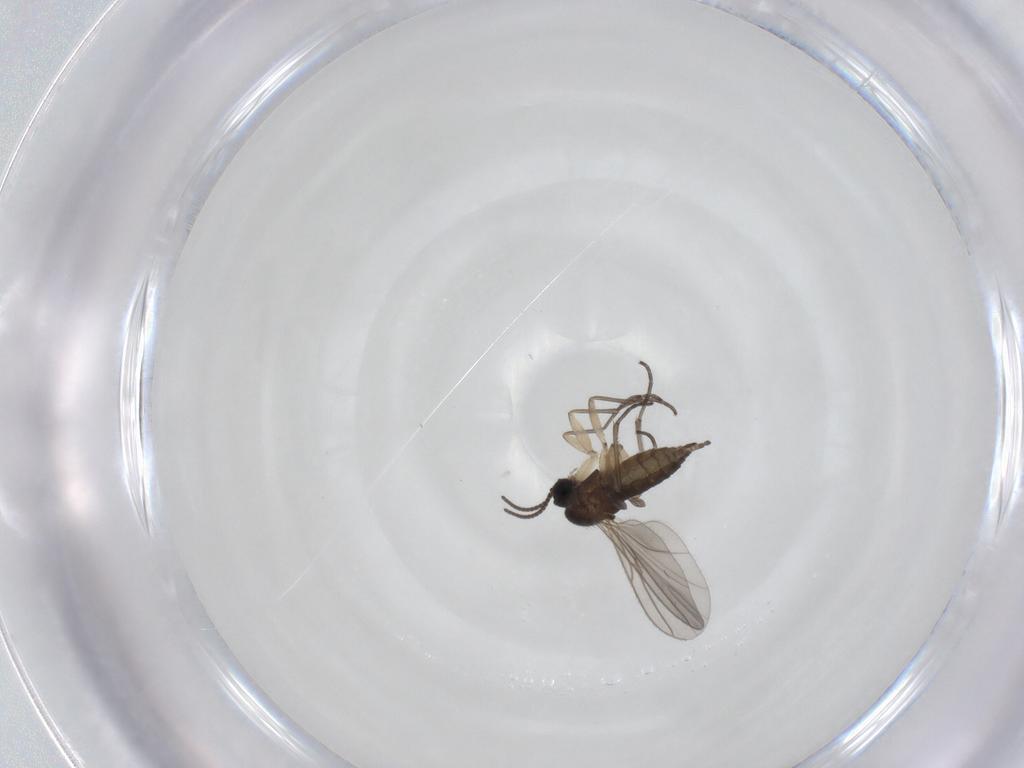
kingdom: Animalia
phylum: Arthropoda
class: Insecta
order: Diptera
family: Sciaridae
